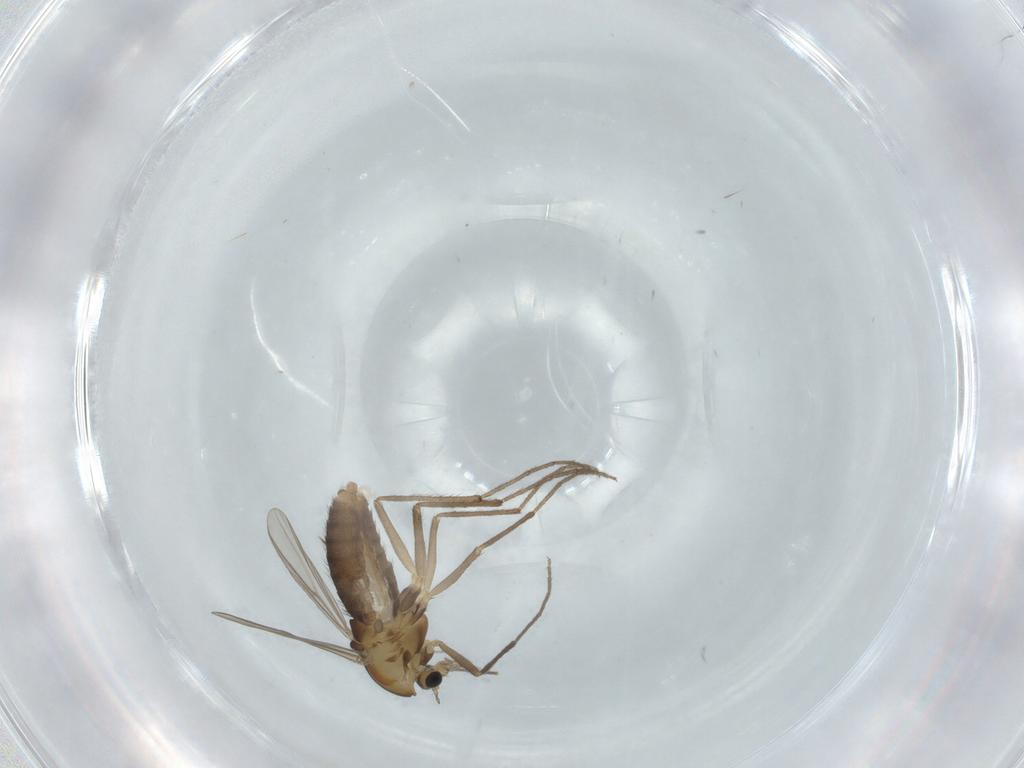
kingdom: Animalia
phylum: Arthropoda
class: Insecta
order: Diptera
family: Chironomidae
